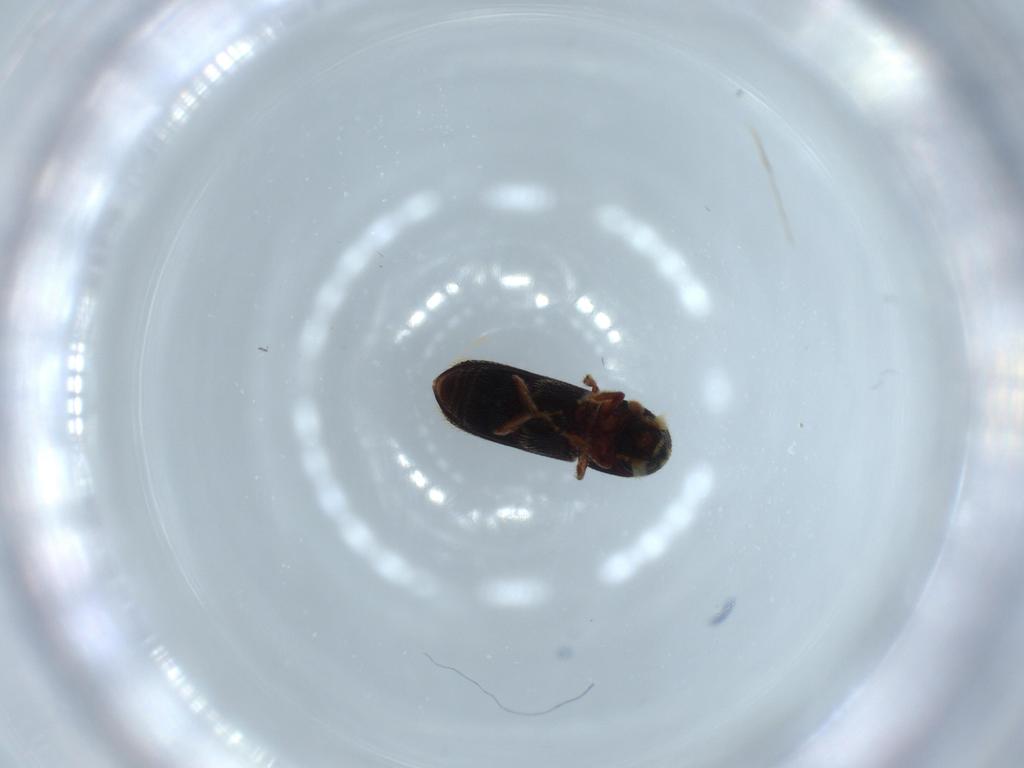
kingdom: Animalia
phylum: Arthropoda
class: Insecta
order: Coleoptera
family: Curculionidae
